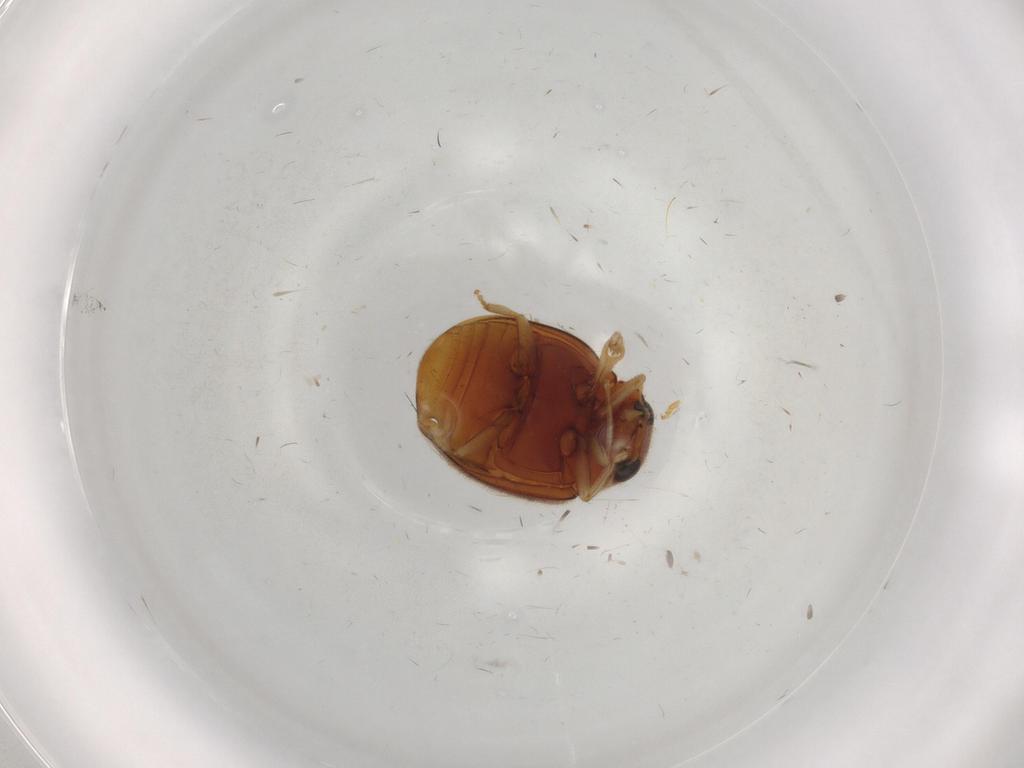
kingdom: Animalia
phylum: Arthropoda
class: Insecta
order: Coleoptera
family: Coccinellidae
